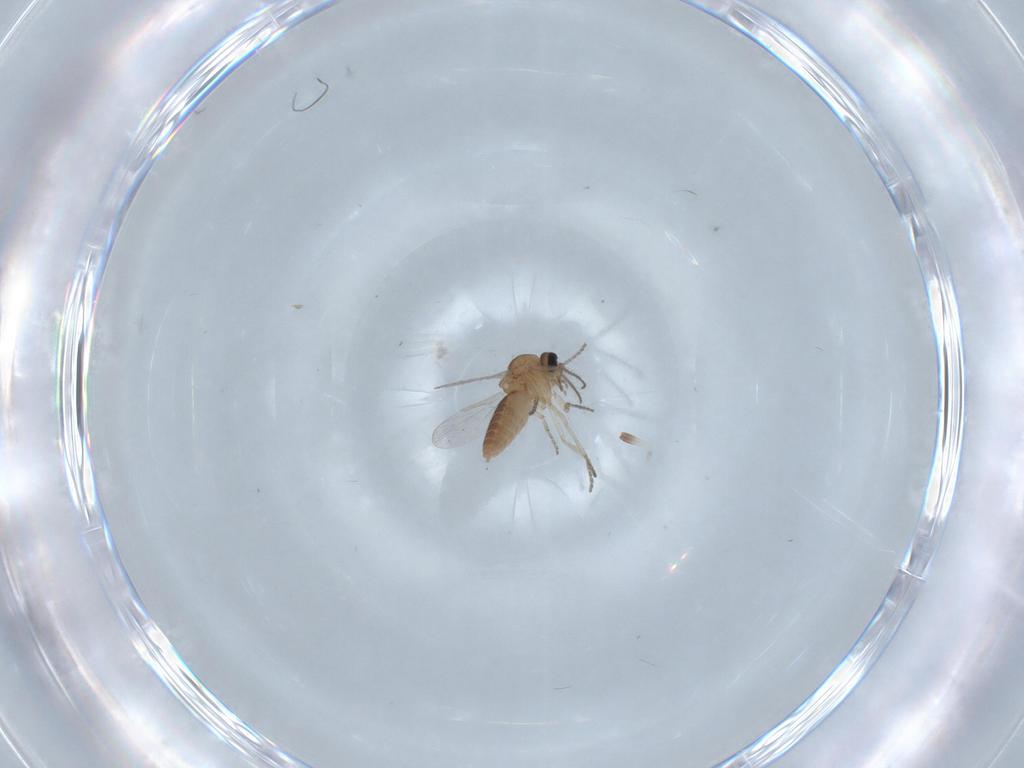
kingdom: Animalia
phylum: Arthropoda
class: Insecta
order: Diptera
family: Ceratopogonidae
